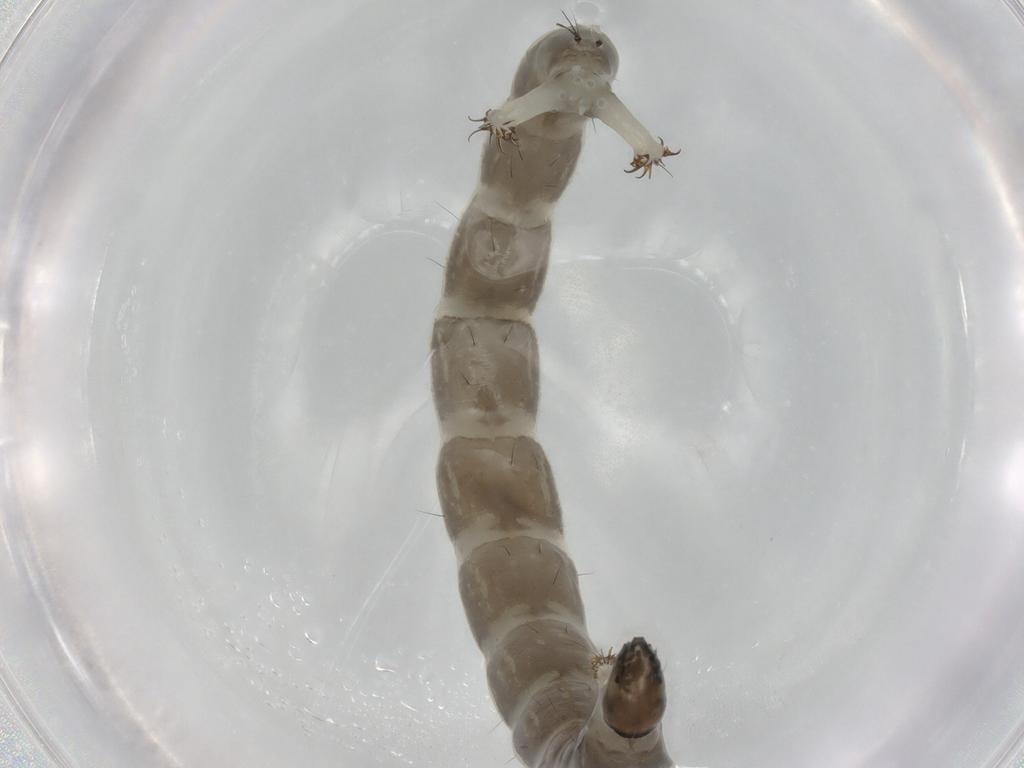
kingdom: Animalia
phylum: Arthropoda
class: Insecta
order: Diptera
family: Chironomidae
